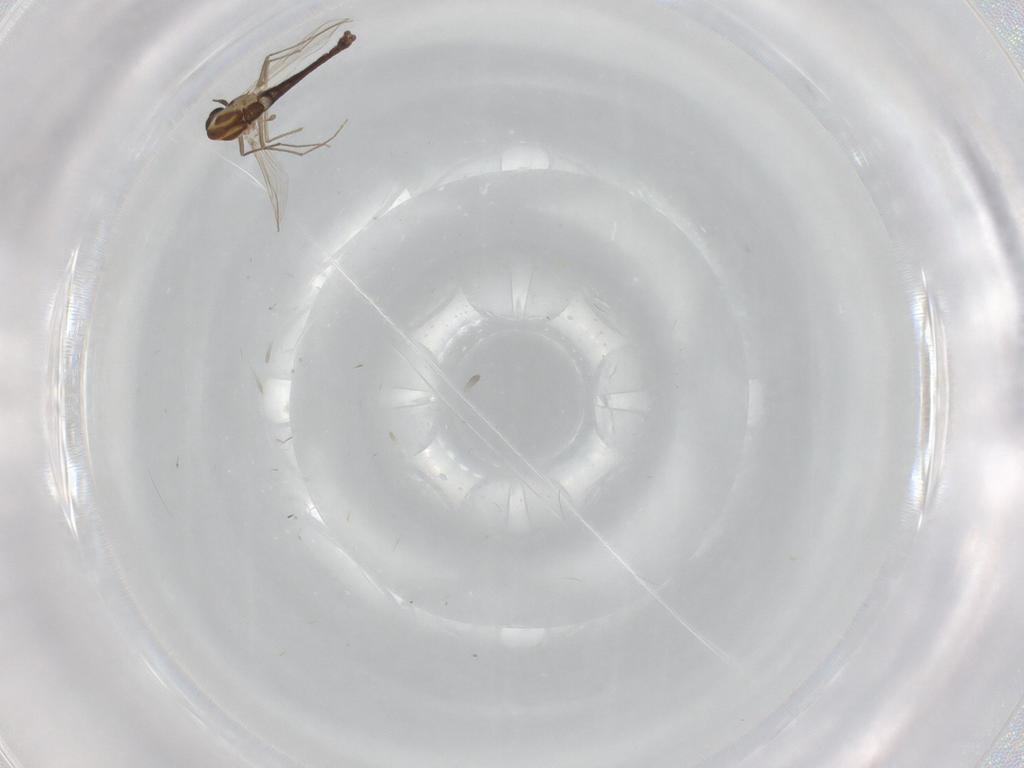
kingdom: Animalia
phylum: Arthropoda
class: Insecta
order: Diptera
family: Chironomidae
